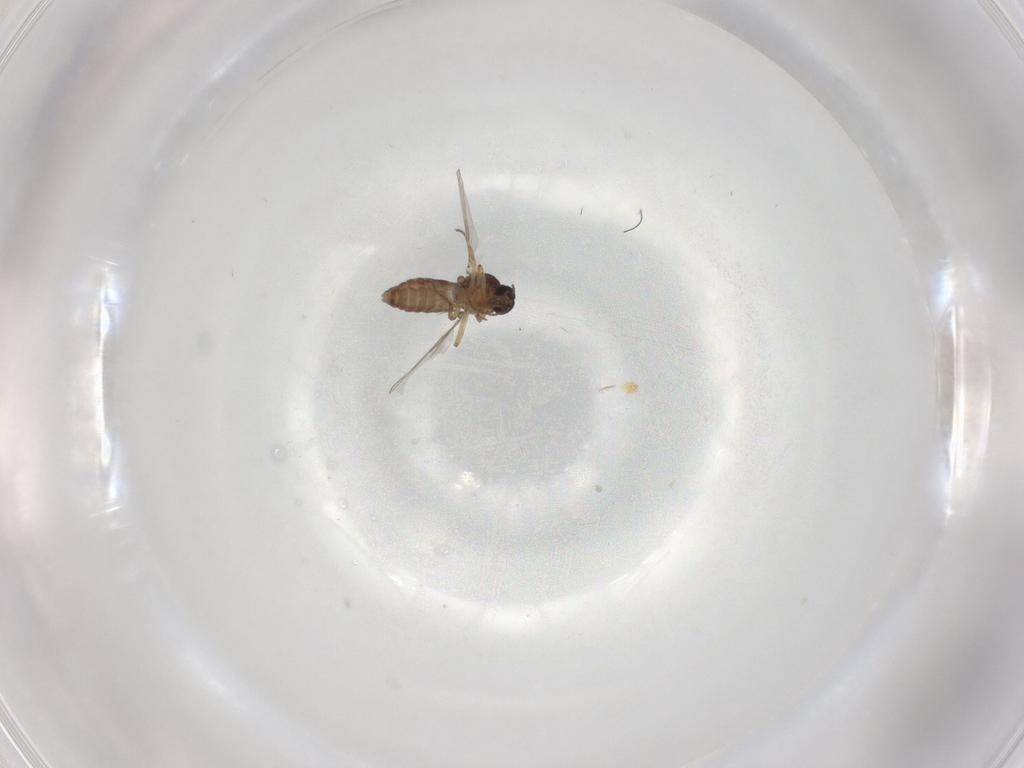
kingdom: Animalia
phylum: Arthropoda
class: Insecta
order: Diptera
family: Ceratopogonidae
